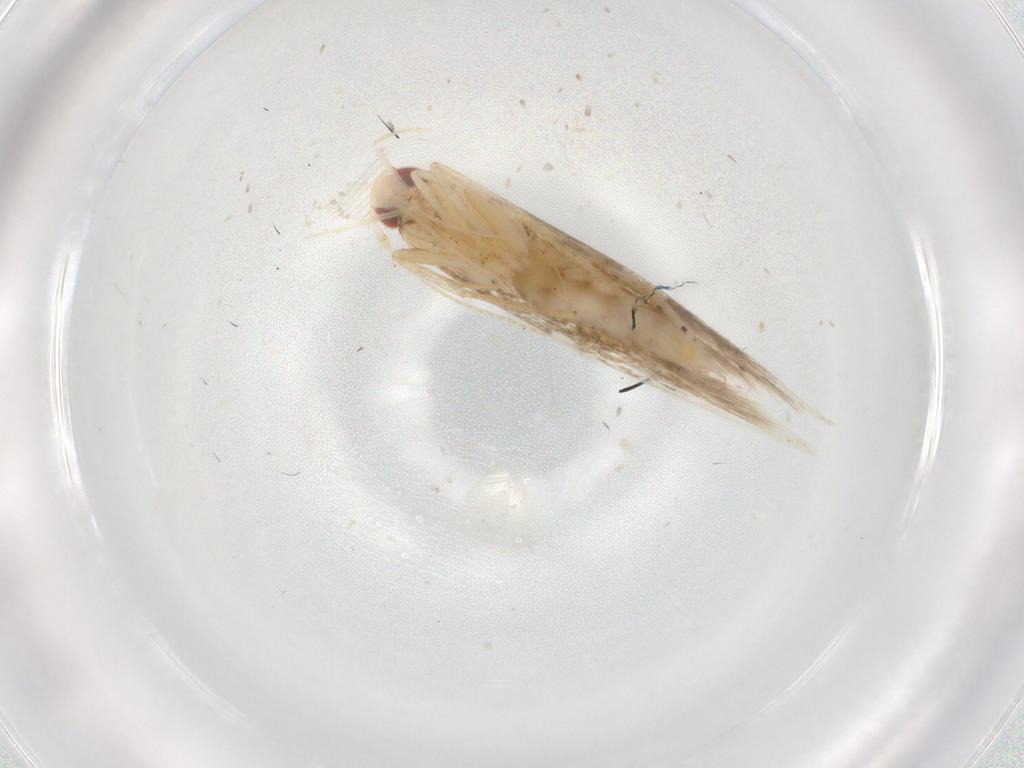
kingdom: Animalia
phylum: Arthropoda
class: Insecta
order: Lepidoptera
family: Cosmopterigidae
